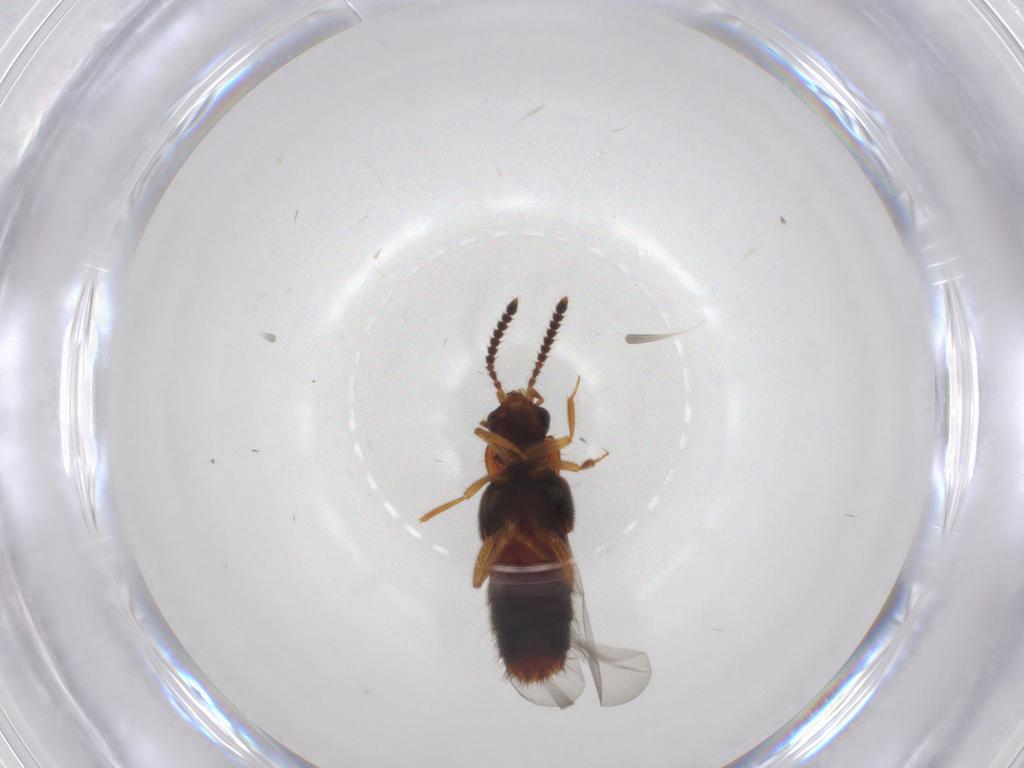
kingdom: Animalia
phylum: Arthropoda
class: Insecta
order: Coleoptera
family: Staphylinidae
